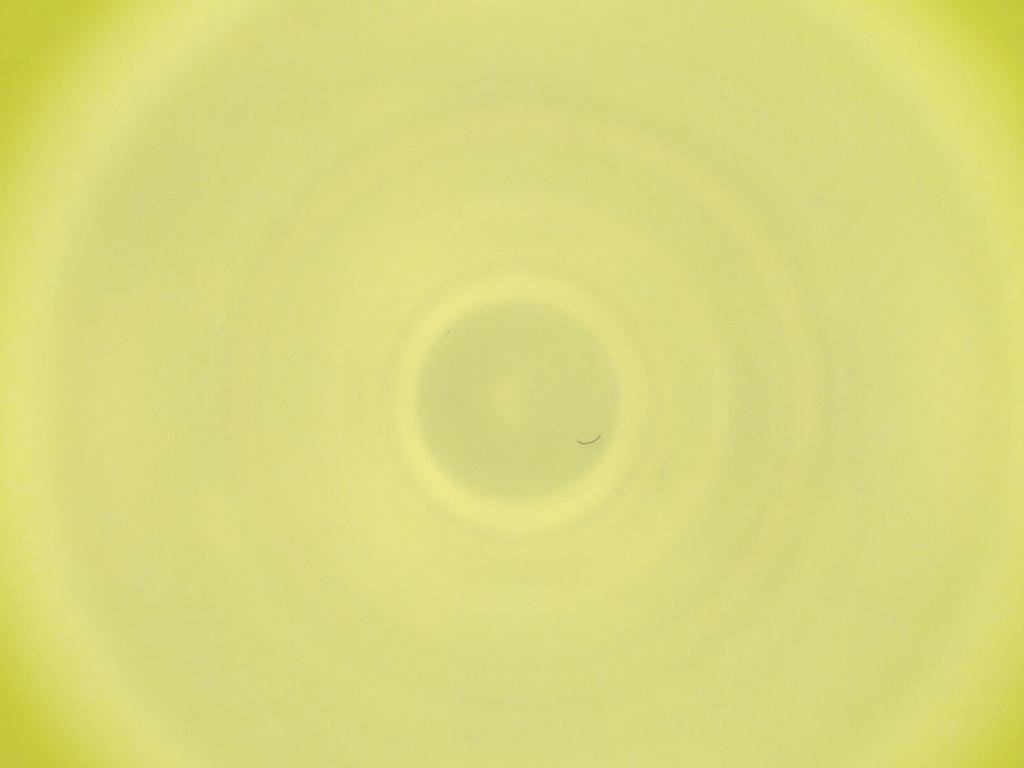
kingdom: Animalia
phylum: Arthropoda
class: Insecta
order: Diptera
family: Cecidomyiidae
